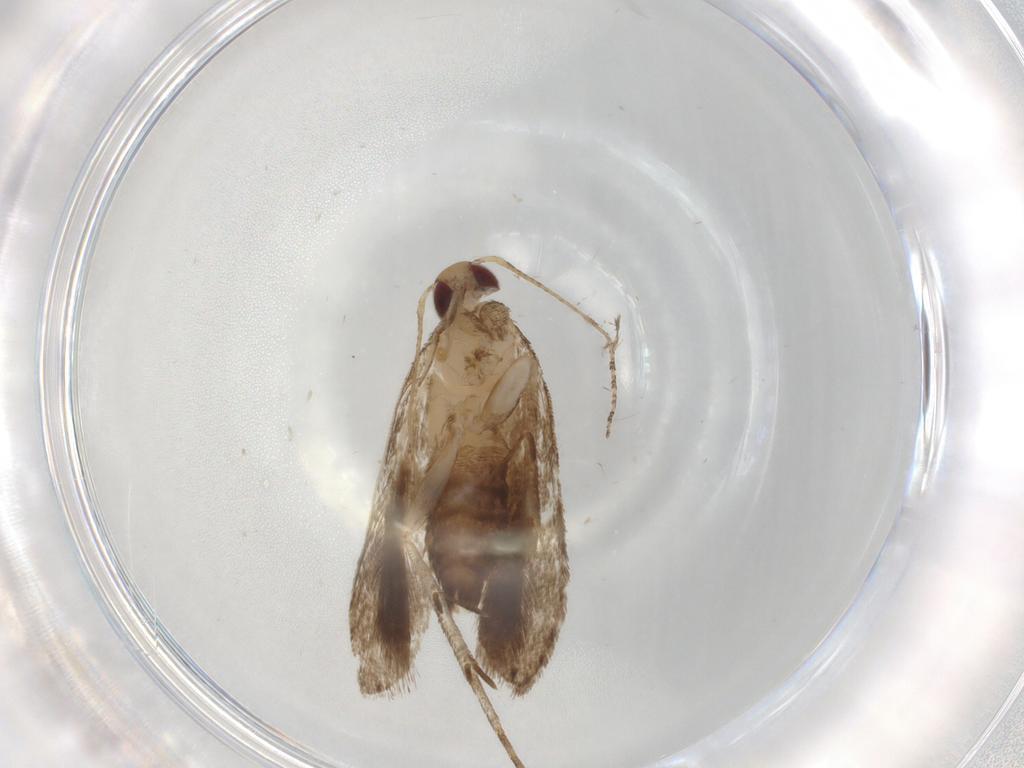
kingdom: Animalia
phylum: Arthropoda
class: Insecta
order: Lepidoptera
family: Gelechiidae
